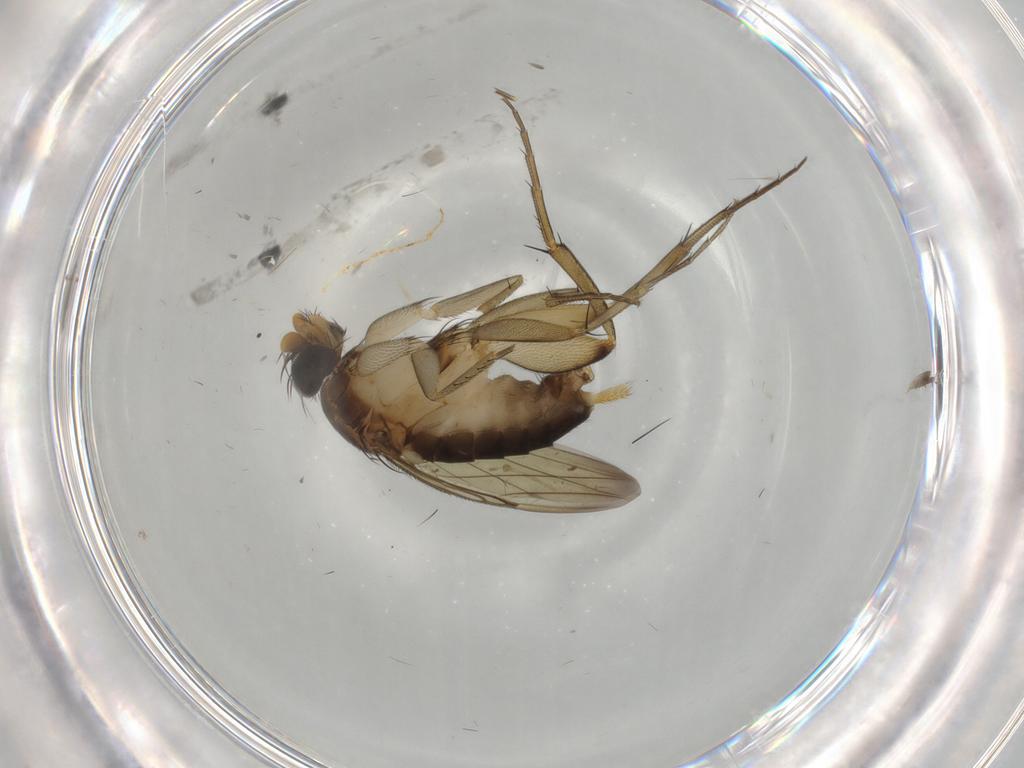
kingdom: Animalia
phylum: Arthropoda
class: Insecta
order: Diptera
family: Phoridae
